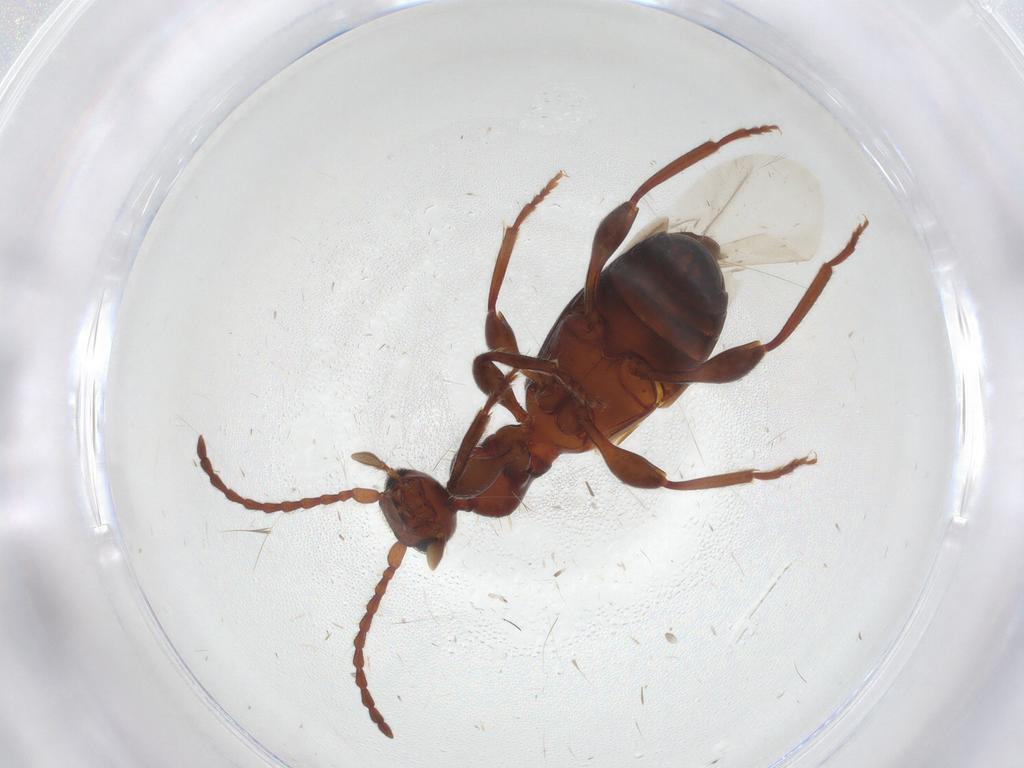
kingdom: Animalia
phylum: Arthropoda
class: Insecta
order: Coleoptera
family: Anthicidae
